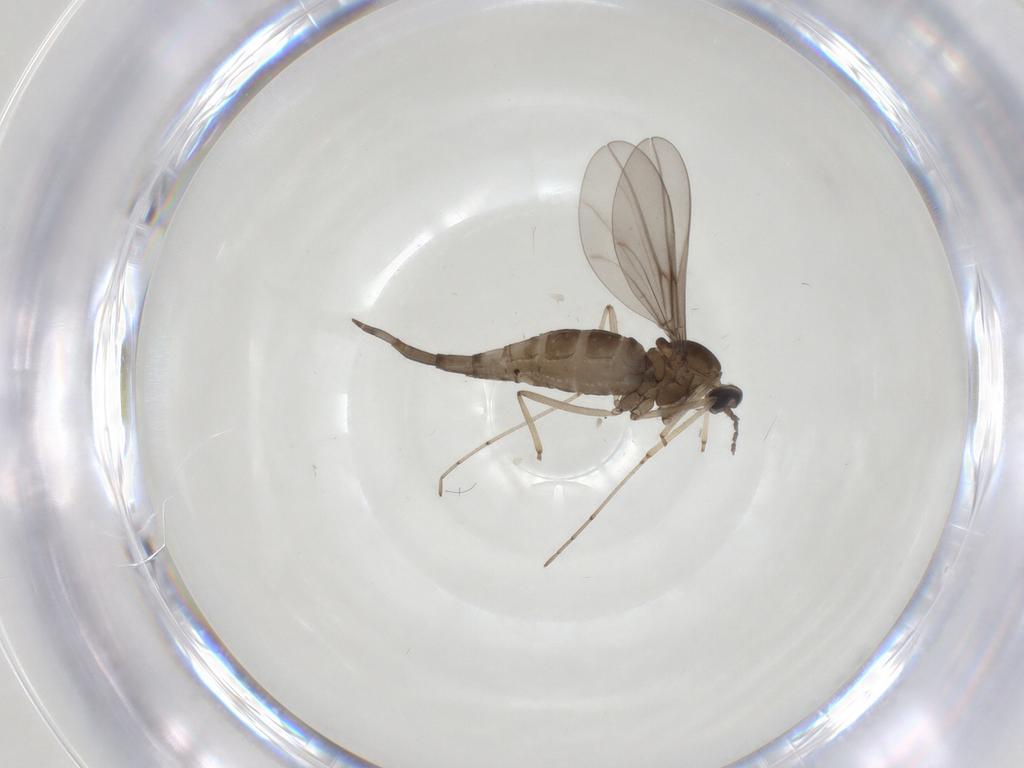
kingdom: Animalia
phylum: Arthropoda
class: Insecta
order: Diptera
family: Cecidomyiidae
